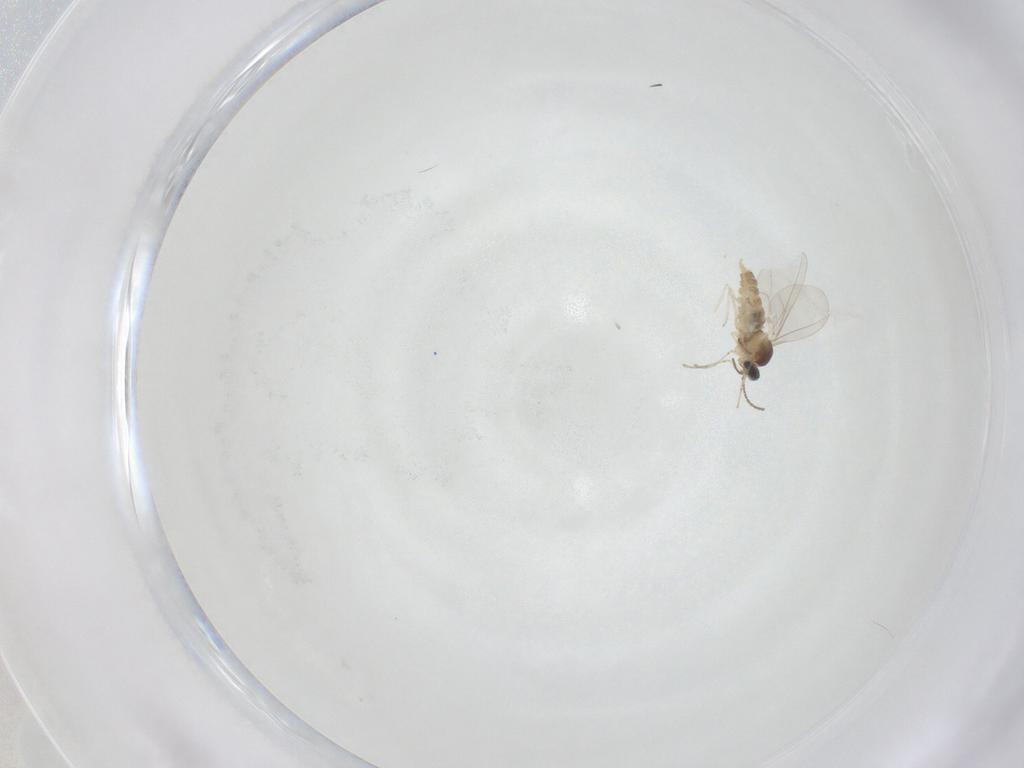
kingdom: Animalia
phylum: Arthropoda
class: Insecta
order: Diptera
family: Cecidomyiidae
